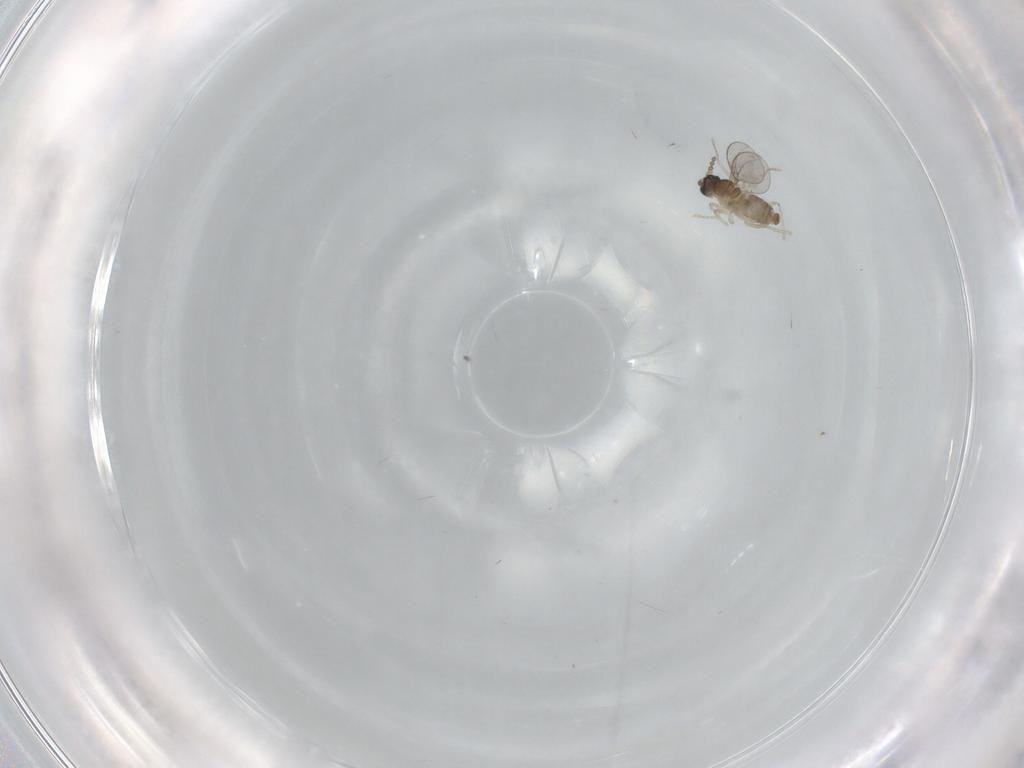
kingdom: Animalia
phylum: Arthropoda
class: Insecta
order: Diptera
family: Cecidomyiidae
